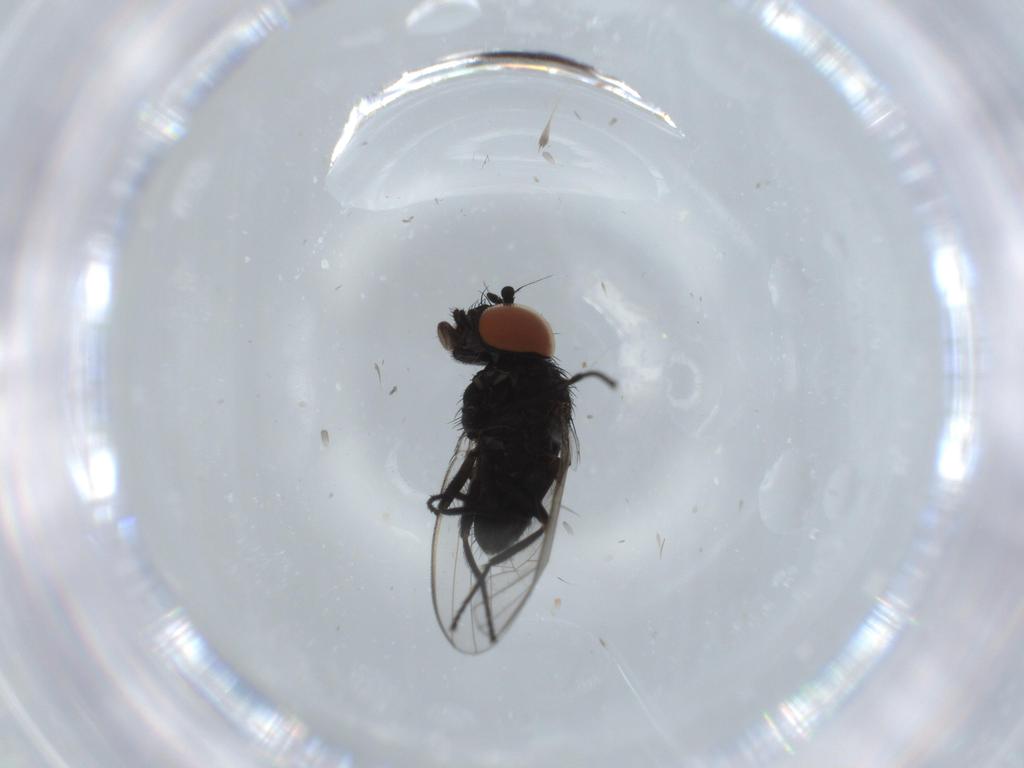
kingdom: Animalia
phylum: Arthropoda
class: Insecta
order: Diptera
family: Milichiidae
